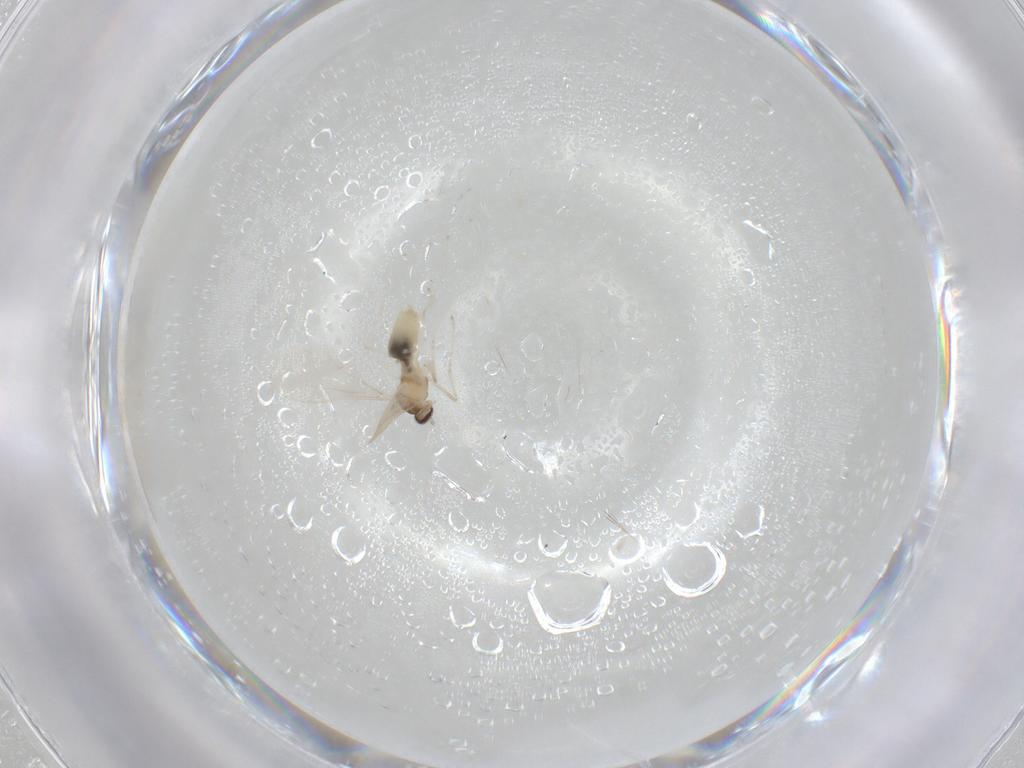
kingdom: Animalia
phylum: Arthropoda
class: Insecta
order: Diptera
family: Cecidomyiidae
